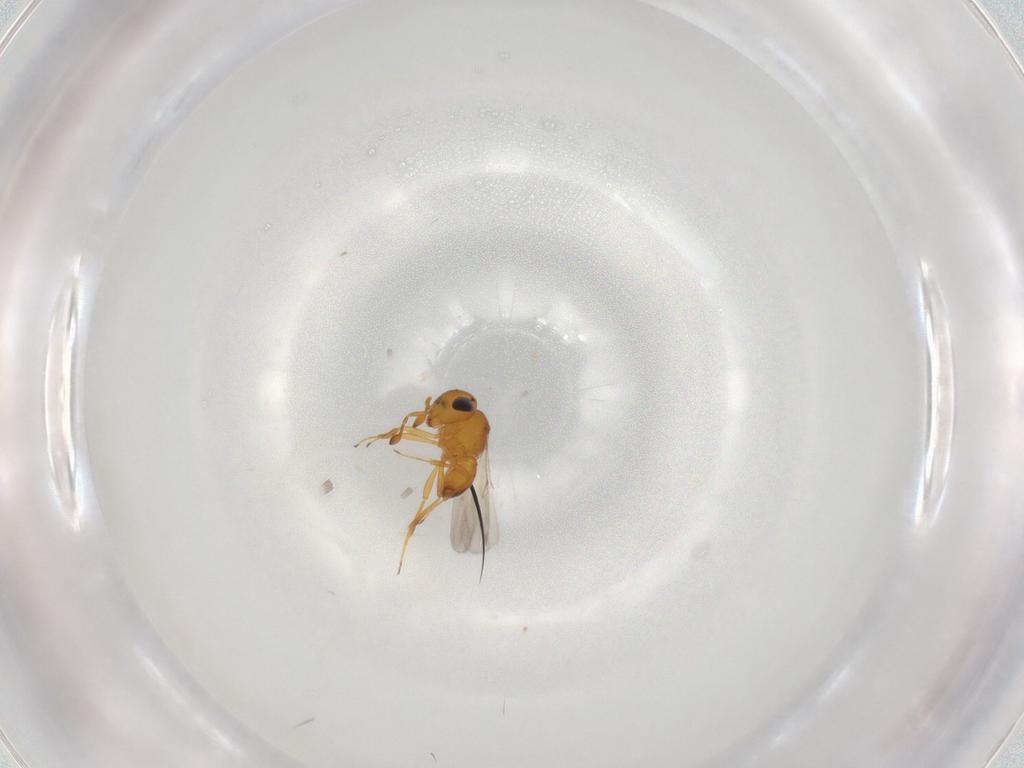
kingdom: Animalia
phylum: Arthropoda
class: Insecta
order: Hymenoptera
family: Scelionidae
